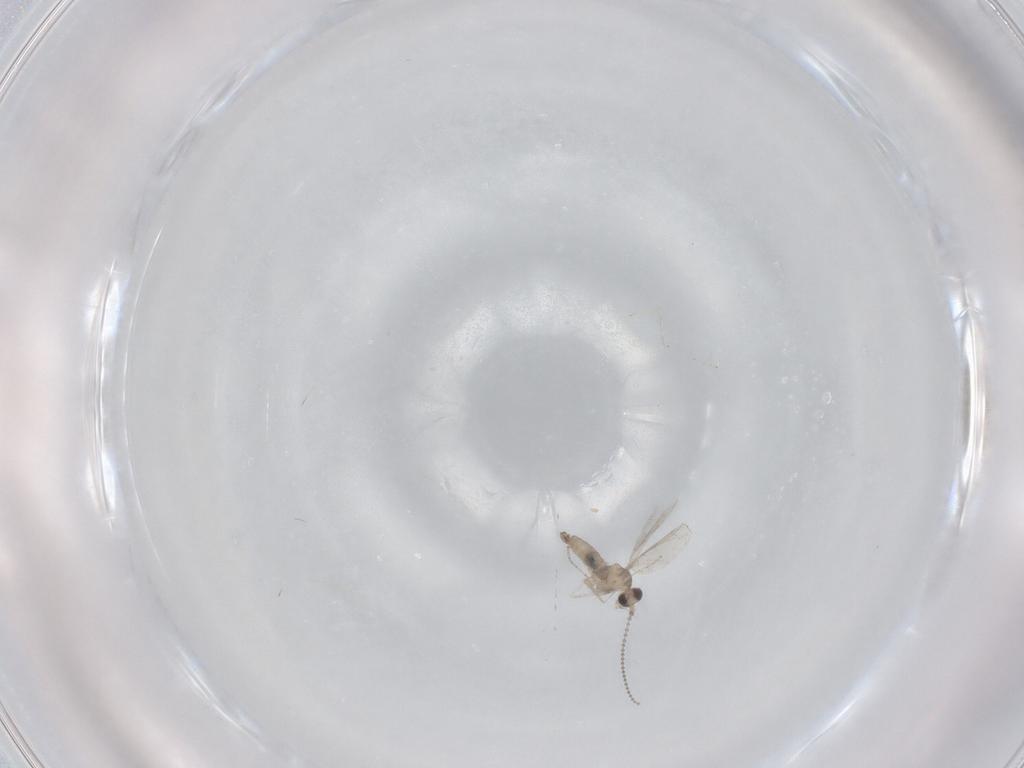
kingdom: Animalia
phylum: Arthropoda
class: Insecta
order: Diptera
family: Cecidomyiidae
